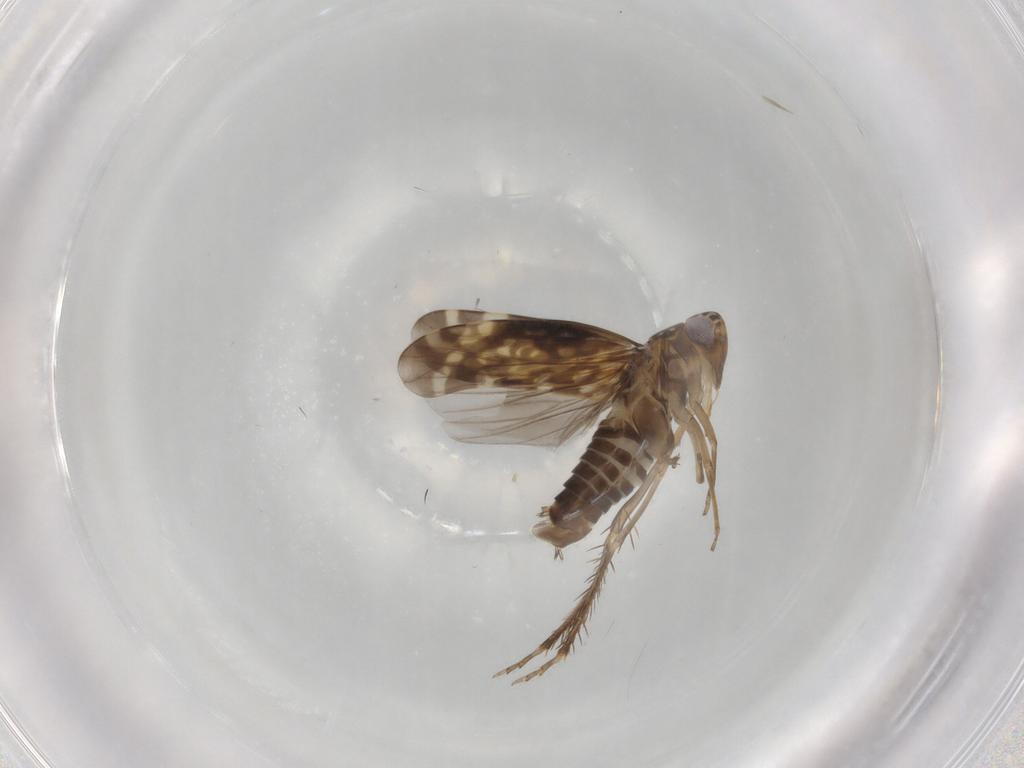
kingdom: Animalia
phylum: Arthropoda
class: Insecta
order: Hemiptera
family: Cicadellidae
